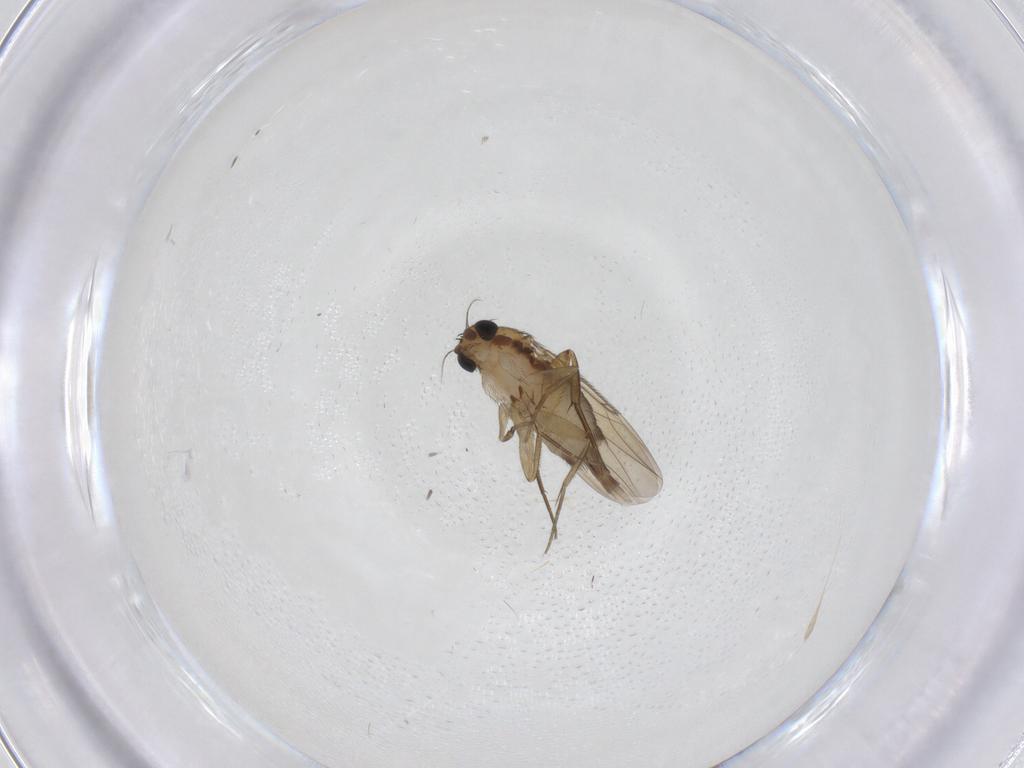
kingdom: Animalia
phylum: Arthropoda
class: Insecta
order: Diptera
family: Phoridae
